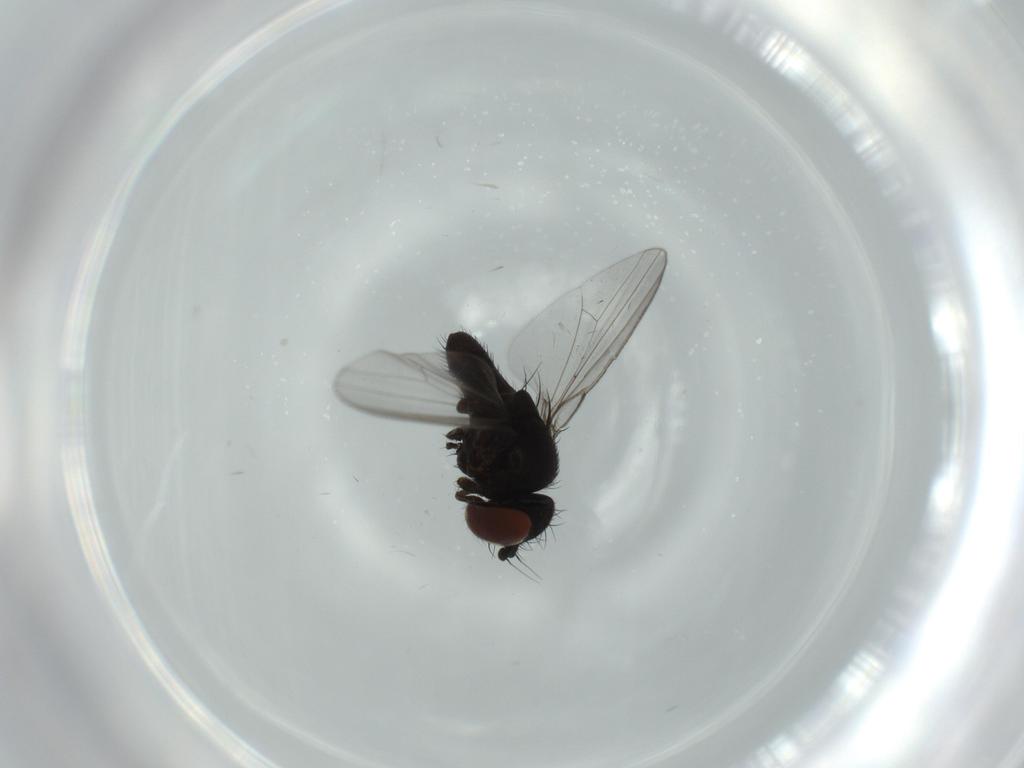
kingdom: Animalia
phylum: Arthropoda
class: Insecta
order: Diptera
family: Milichiidae
